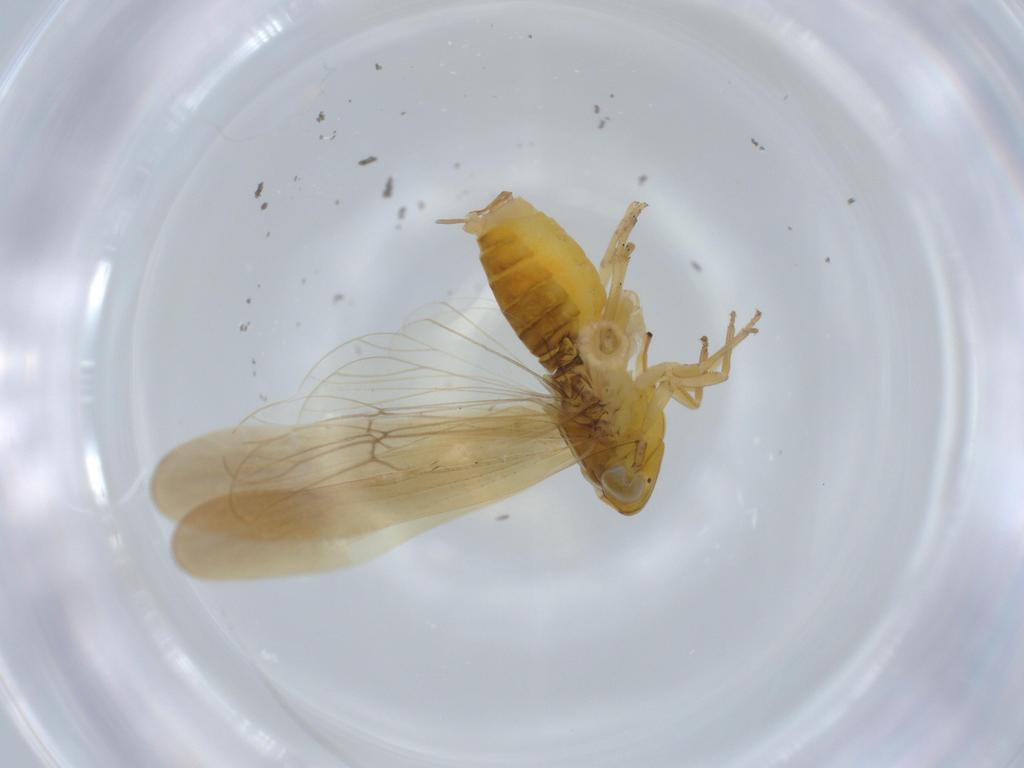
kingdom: Animalia
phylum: Arthropoda
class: Insecta
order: Hemiptera
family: Delphacidae
